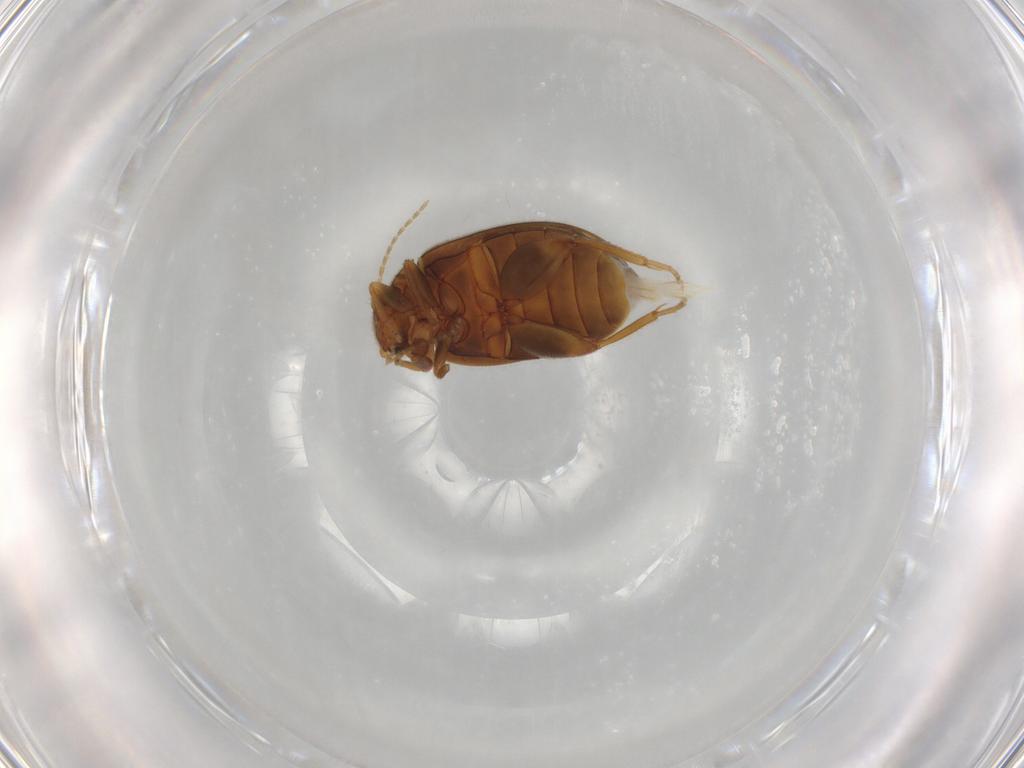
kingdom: Animalia
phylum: Arthropoda
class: Insecta
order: Coleoptera
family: Scirtidae
